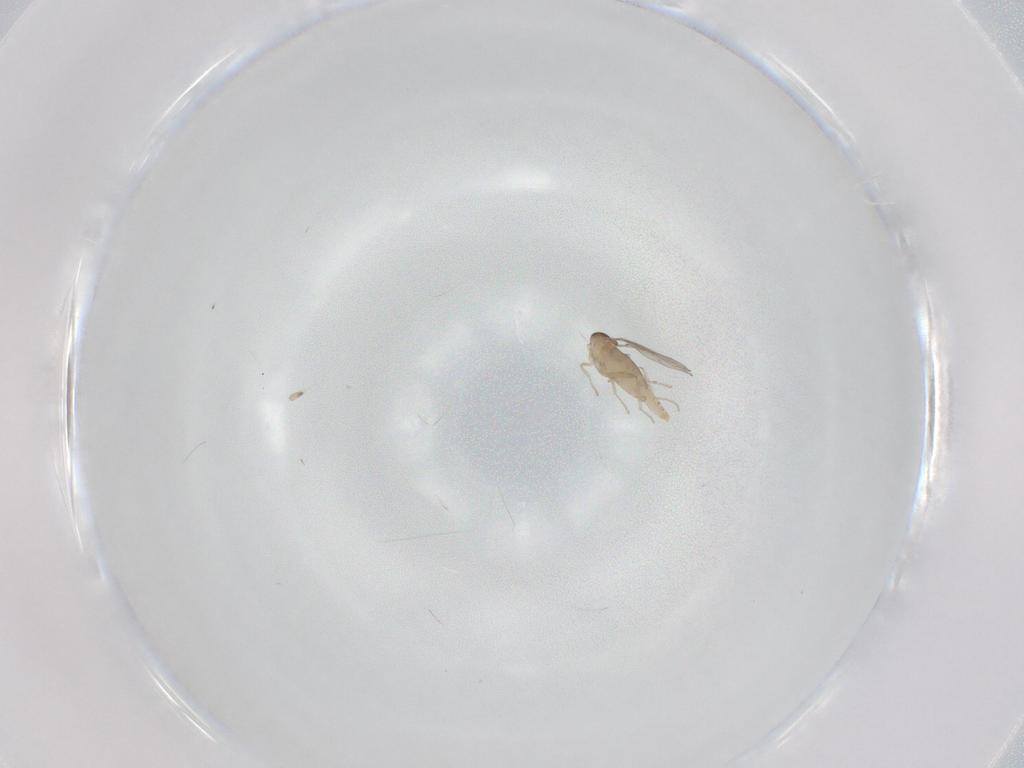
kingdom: Animalia
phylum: Arthropoda
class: Insecta
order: Diptera
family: Cecidomyiidae
